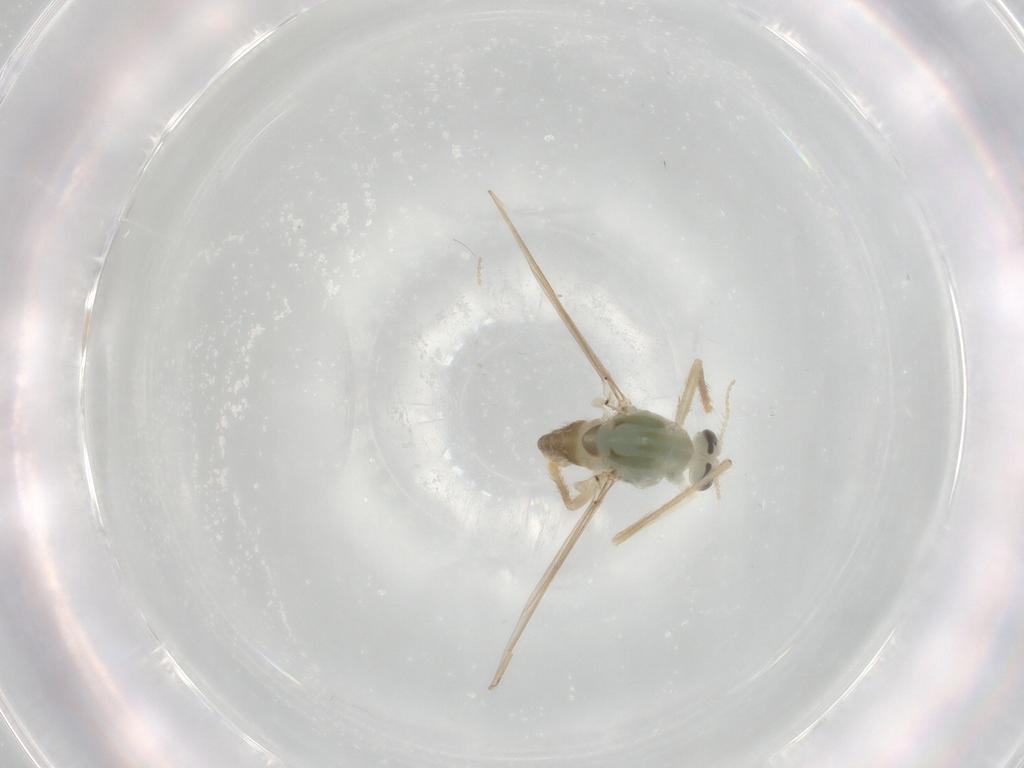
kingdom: Animalia
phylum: Arthropoda
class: Insecta
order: Diptera
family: Chironomidae
